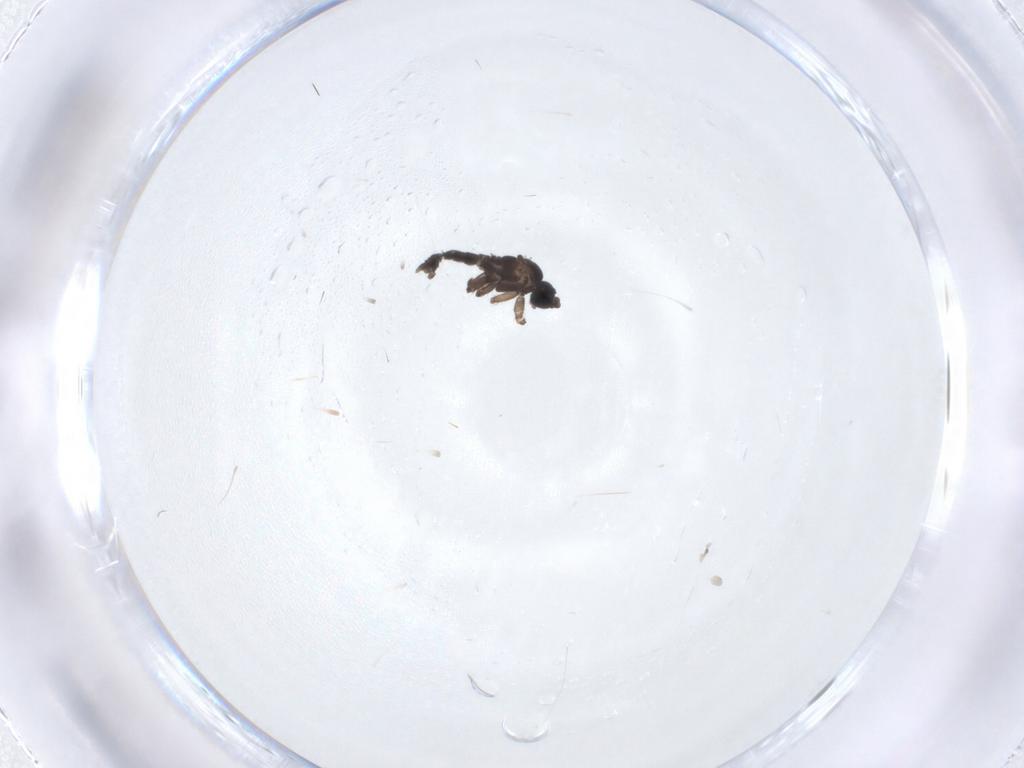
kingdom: Animalia
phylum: Arthropoda
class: Insecta
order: Diptera
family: Sciaridae
